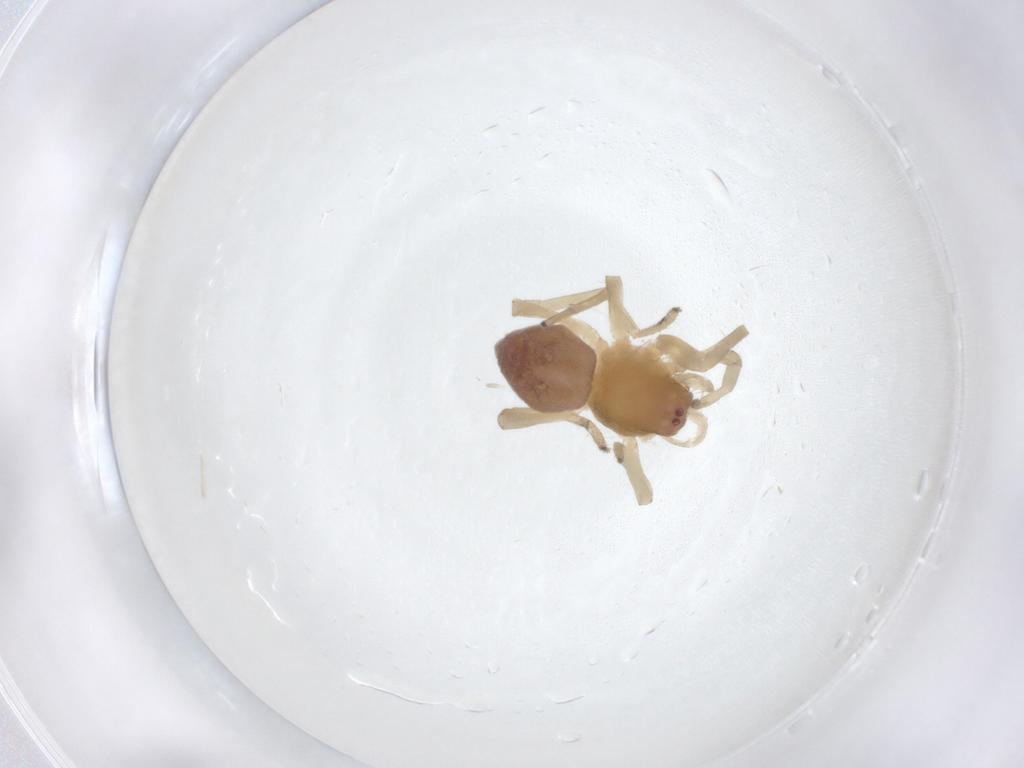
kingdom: Animalia
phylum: Arthropoda
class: Arachnida
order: Araneae
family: Trachelidae
